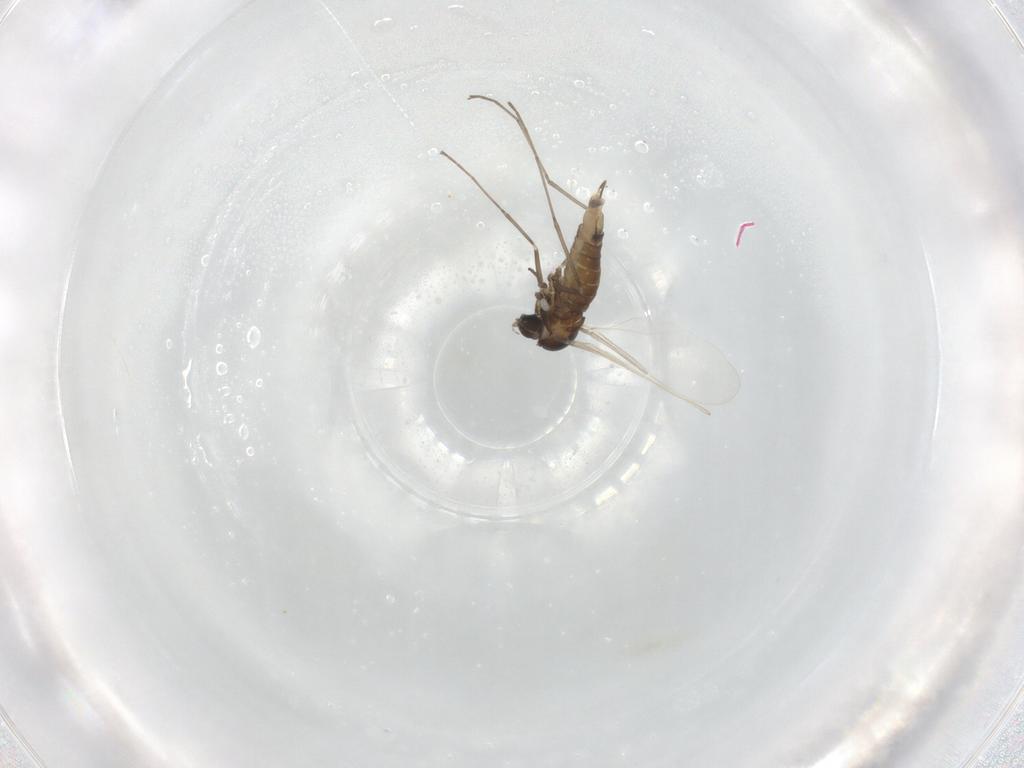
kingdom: Animalia
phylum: Arthropoda
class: Insecta
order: Diptera
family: Cecidomyiidae
